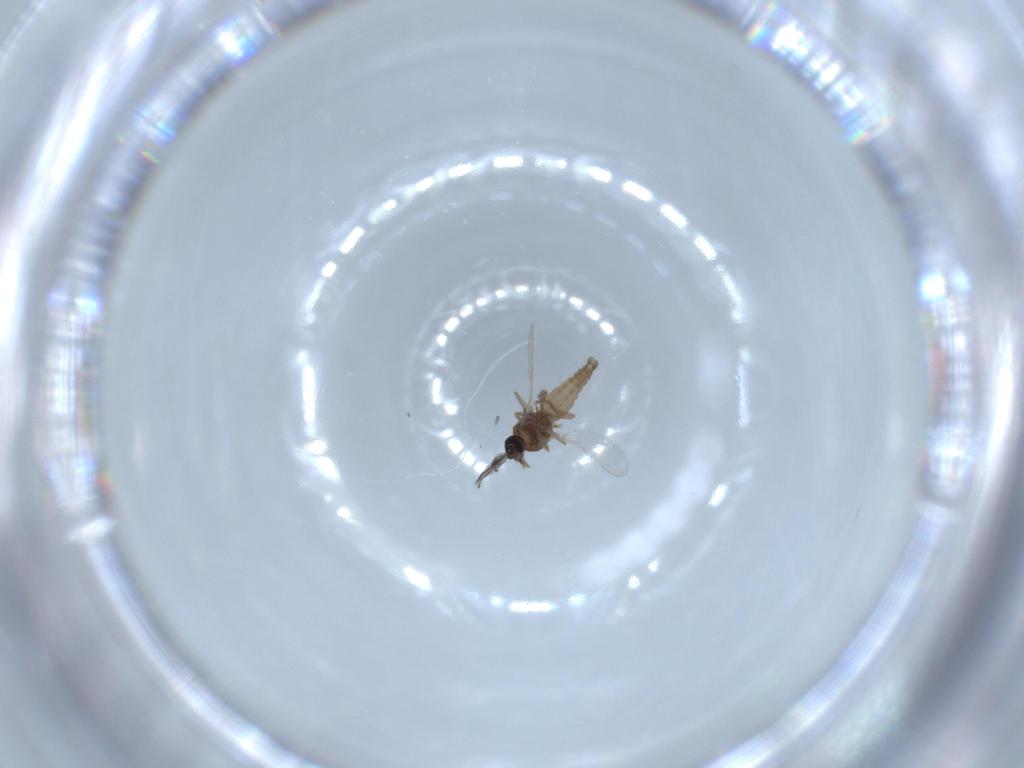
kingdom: Animalia
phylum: Arthropoda
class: Insecta
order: Diptera
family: Ceratopogonidae
